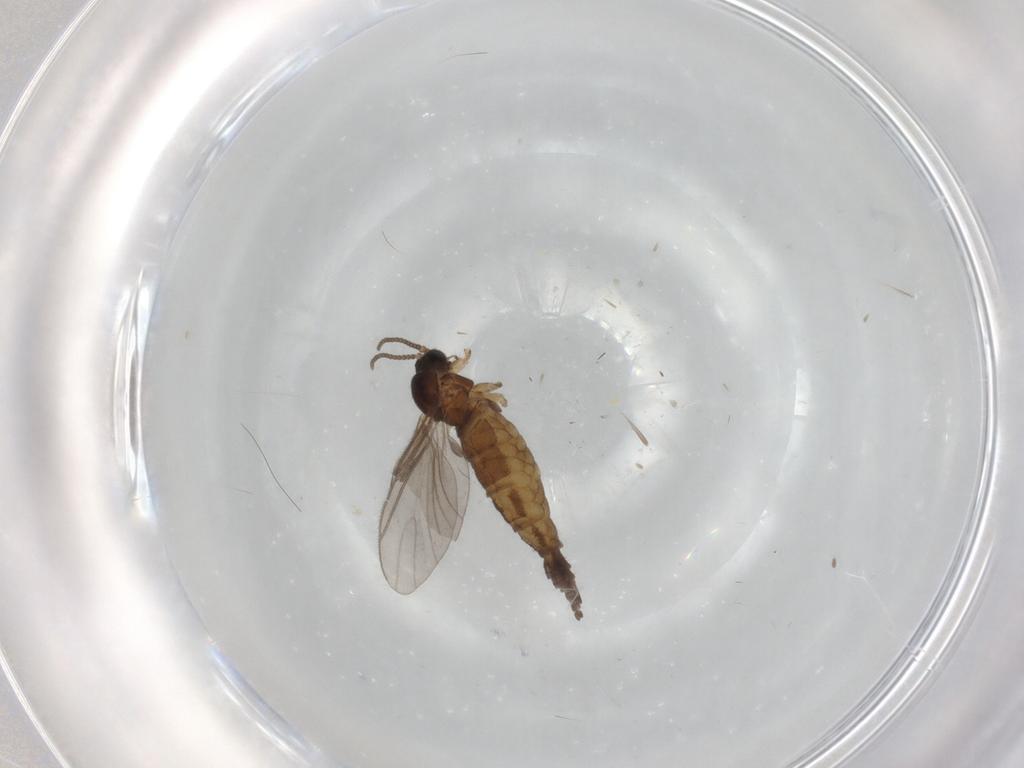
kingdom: Animalia
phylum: Arthropoda
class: Insecta
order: Diptera
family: Sciaridae
